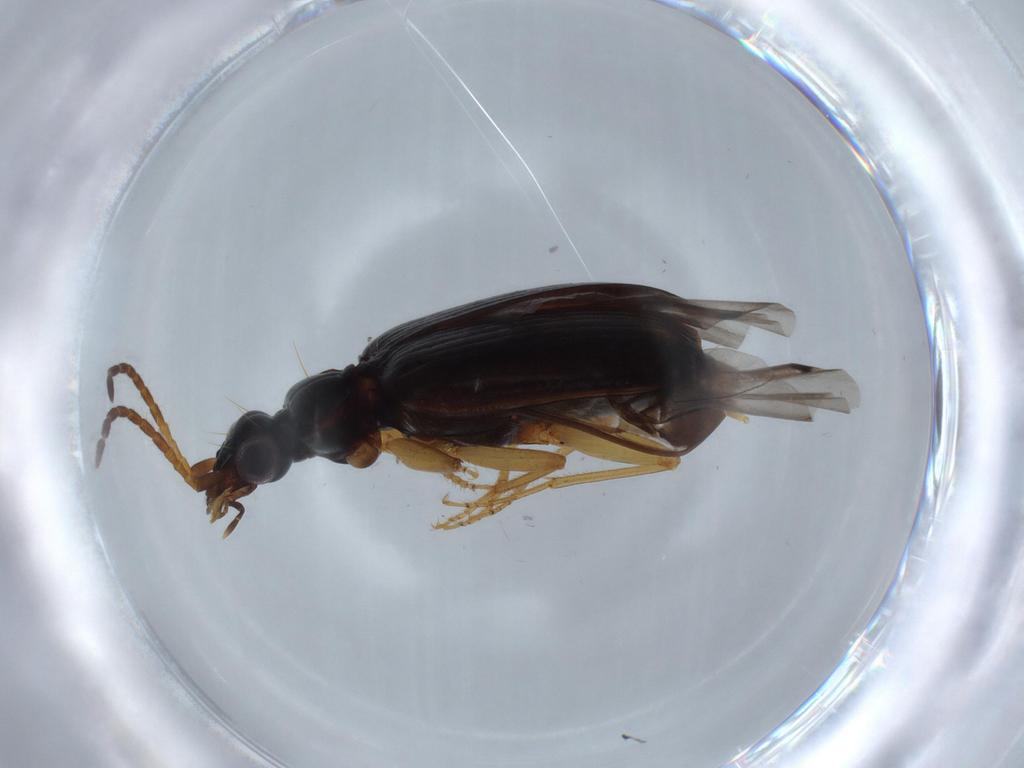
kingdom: Animalia
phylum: Arthropoda
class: Insecta
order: Coleoptera
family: Carabidae
